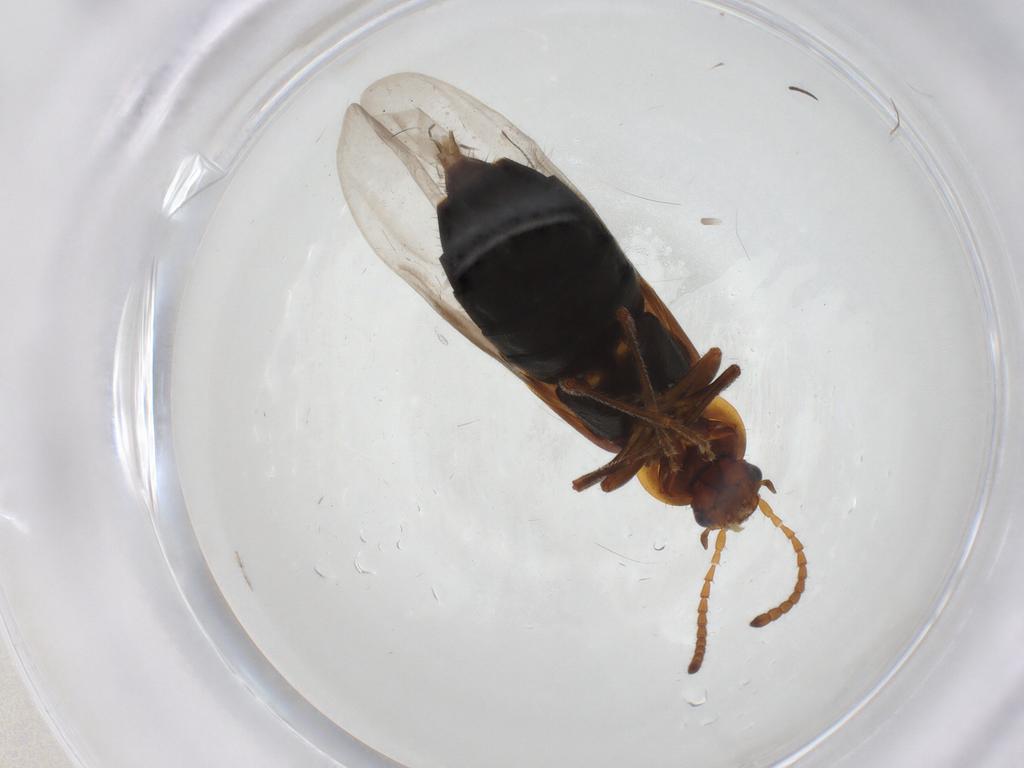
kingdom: Animalia
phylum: Arthropoda
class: Insecta
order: Coleoptera
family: Staphylinidae
